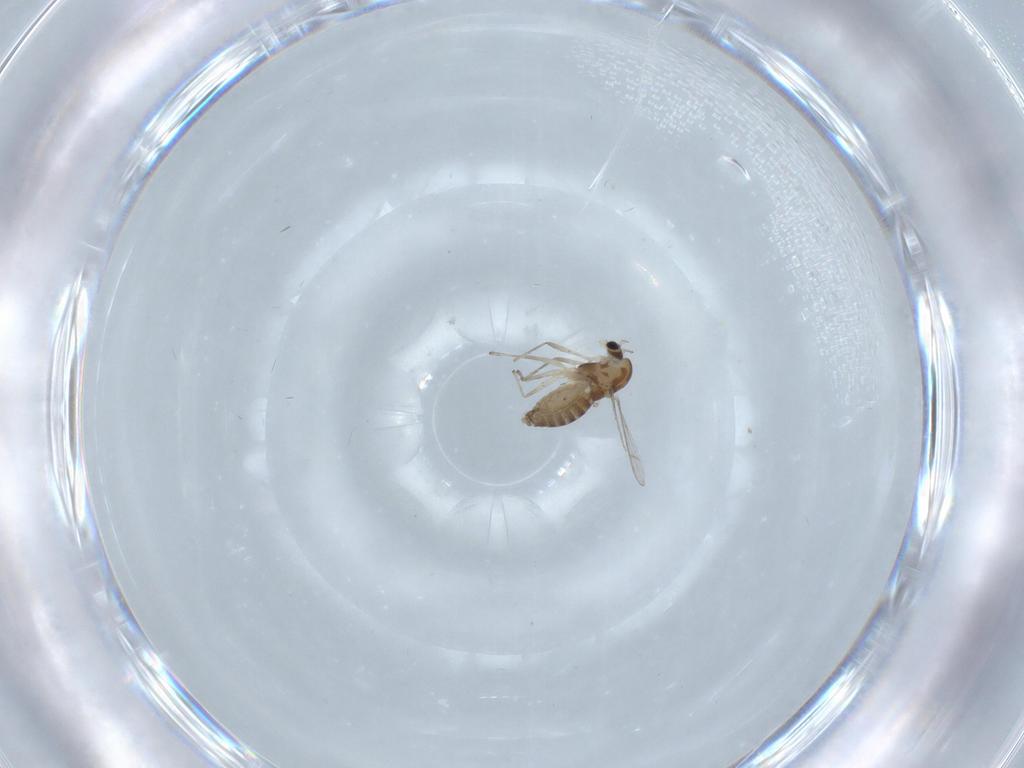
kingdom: Animalia
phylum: Arthropoda
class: Insecta
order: Diptera
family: Chironomidae
